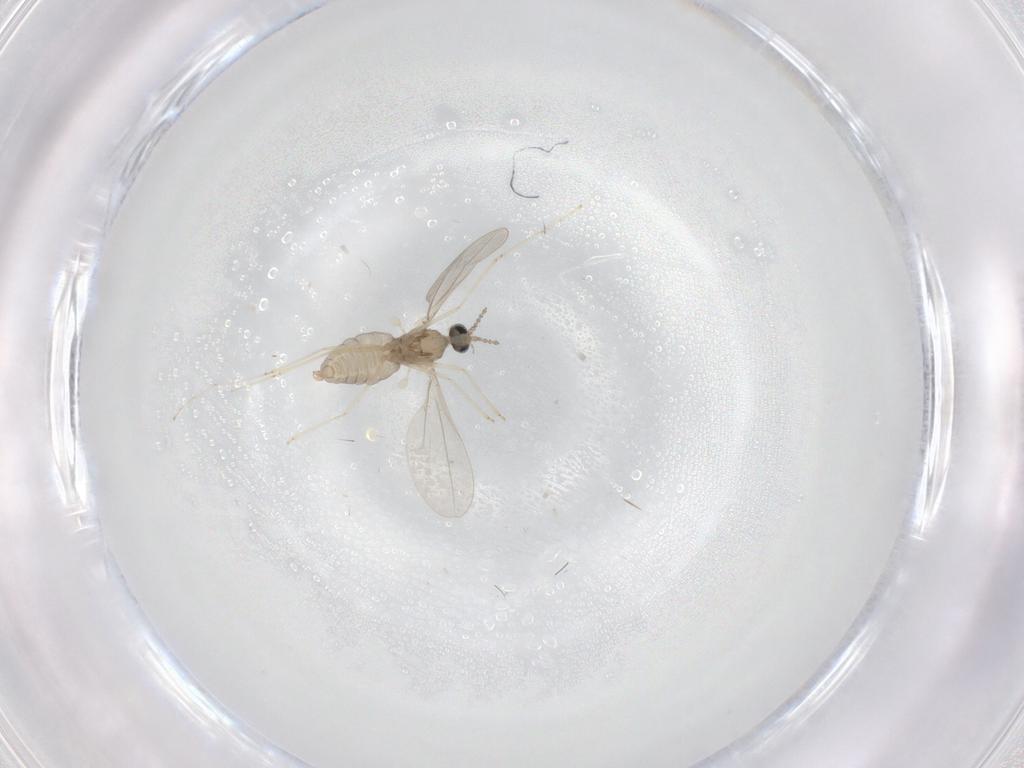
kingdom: Animalia
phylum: Arthropoda
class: Insecta
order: Diptera
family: Cecidomyiidae
